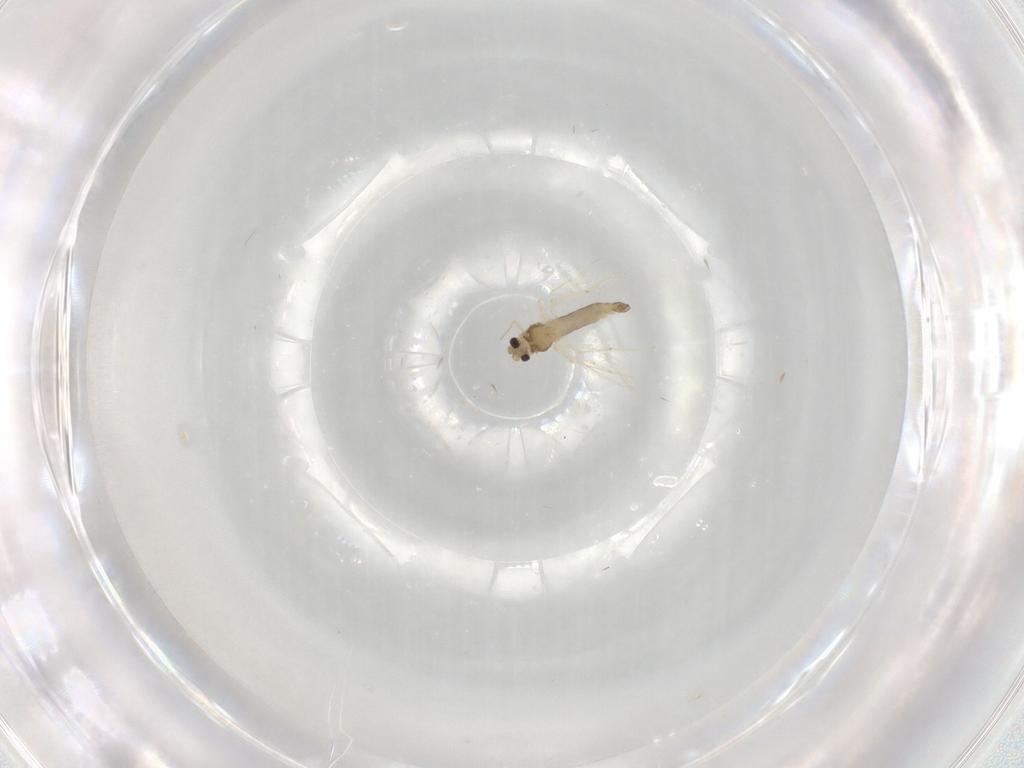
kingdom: Animalia
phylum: Arthropoda
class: Insecta
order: Diptera
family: Chironomidae
